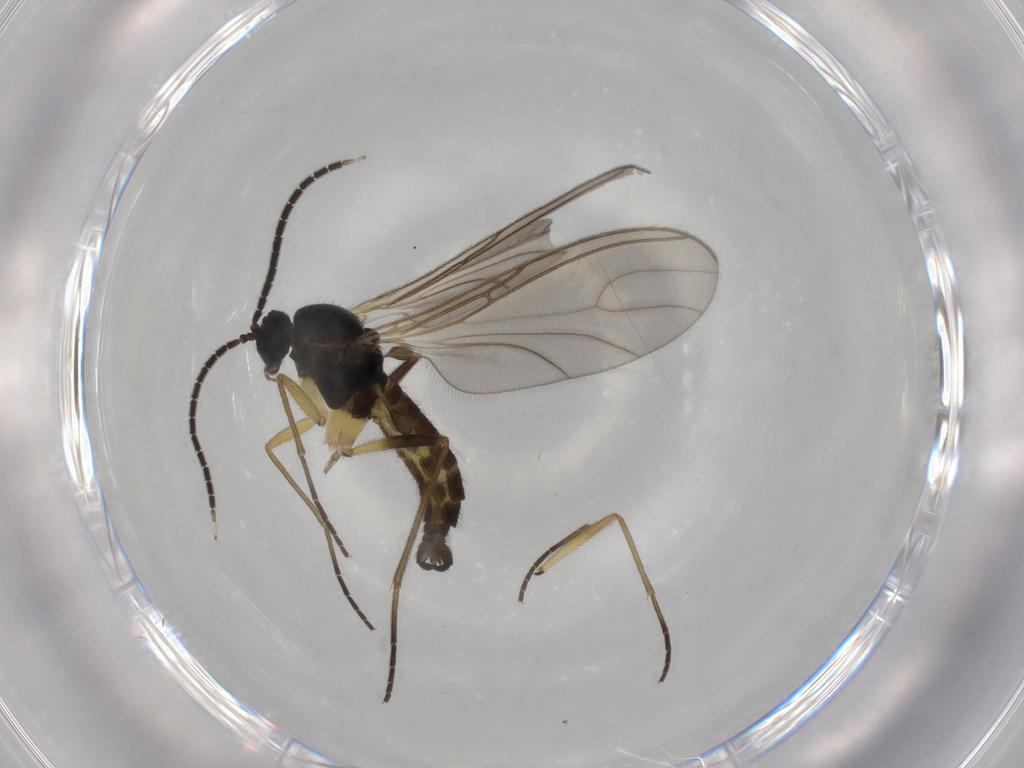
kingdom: Animalia
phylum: Arthropoda
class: Insecta
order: Diptera
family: Sciaridae
